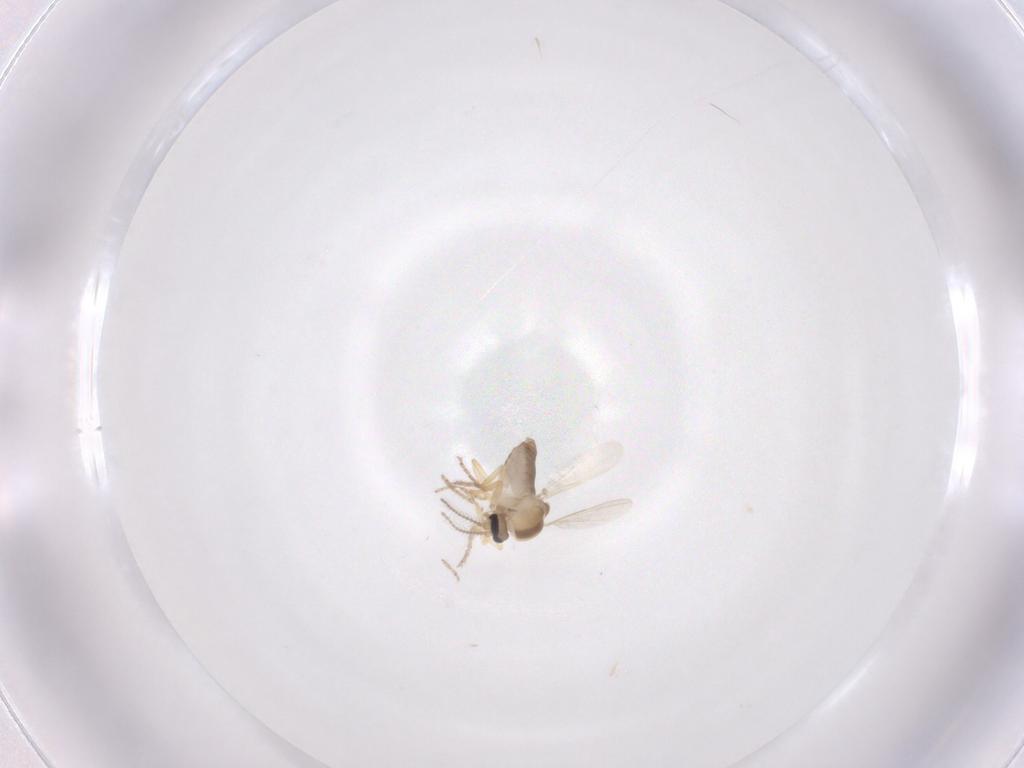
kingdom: Animalia
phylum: Arthropoda
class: Insecta
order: Diptera
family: Ceratopogonidae
